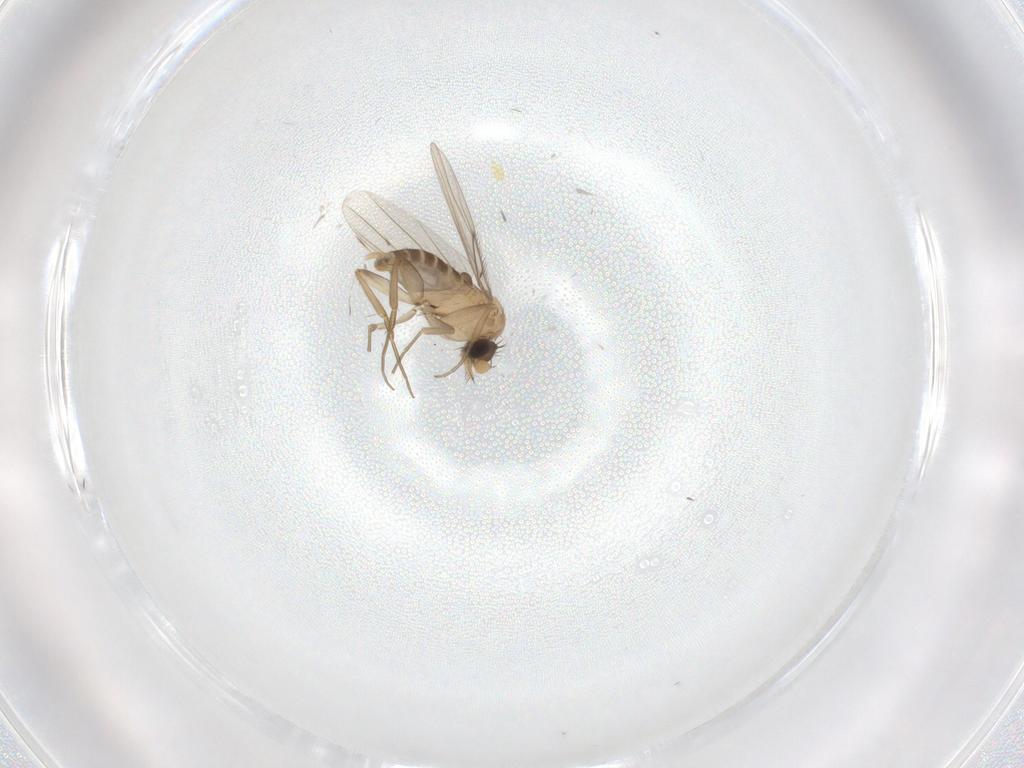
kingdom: Animalia
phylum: Arthropoda
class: Insecta
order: Diptera
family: Phoridae
